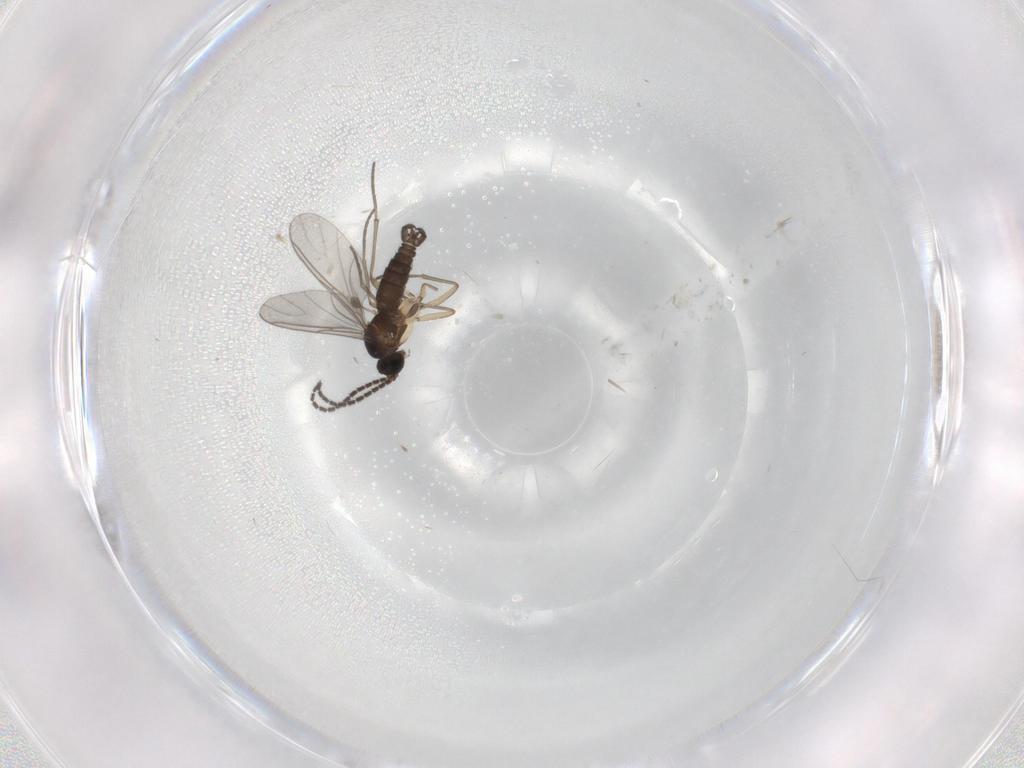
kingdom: Animalia
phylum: Arthropoda
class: Insecta
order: Diptera
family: Sciaridae
